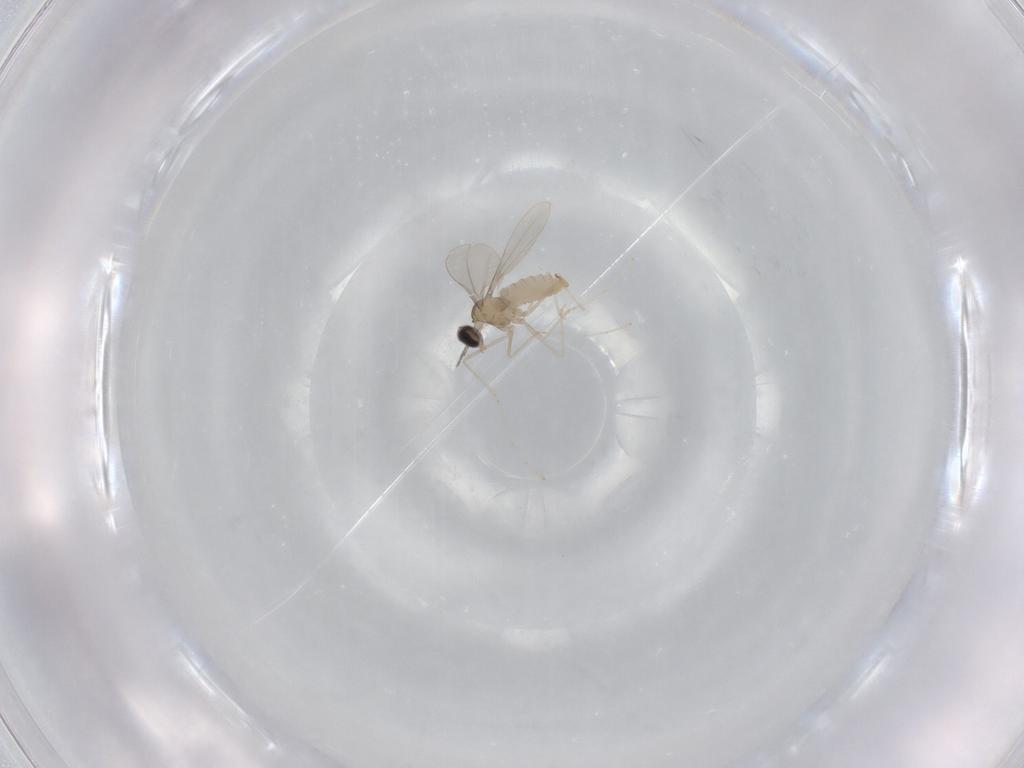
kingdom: Animalia
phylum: Arthropoda
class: Insecta
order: Diptera
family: Cecidomyiidae
